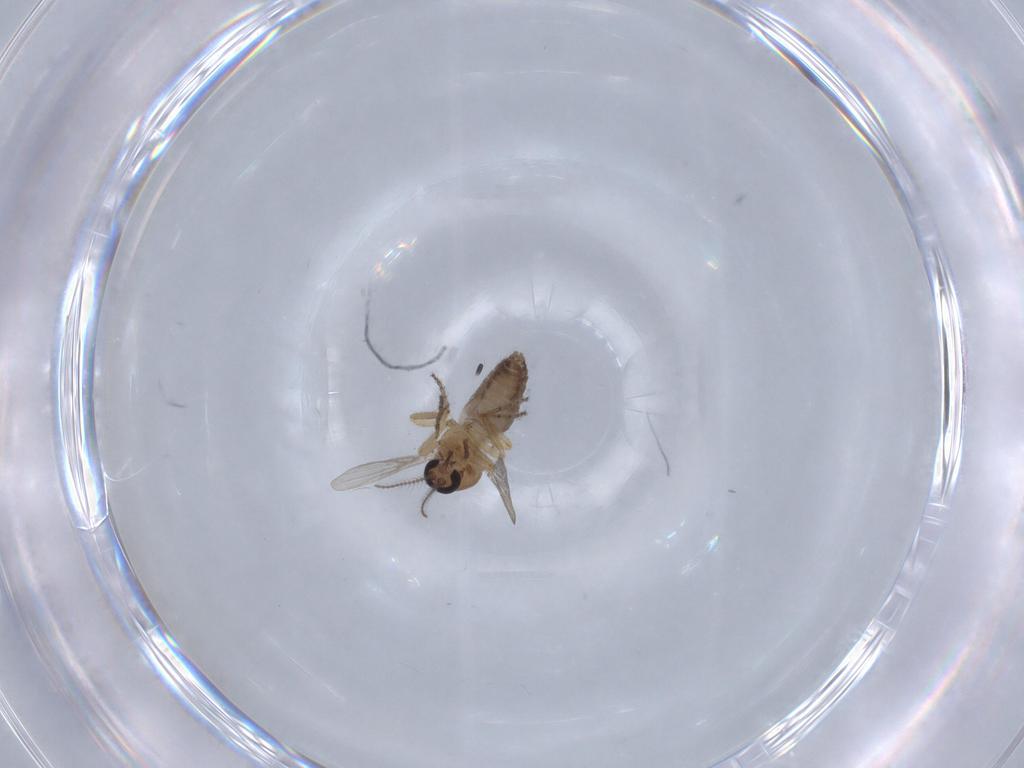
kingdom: Animalia
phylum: Arthropoda
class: Insecta
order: Diptera
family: Ceratopogonidae
